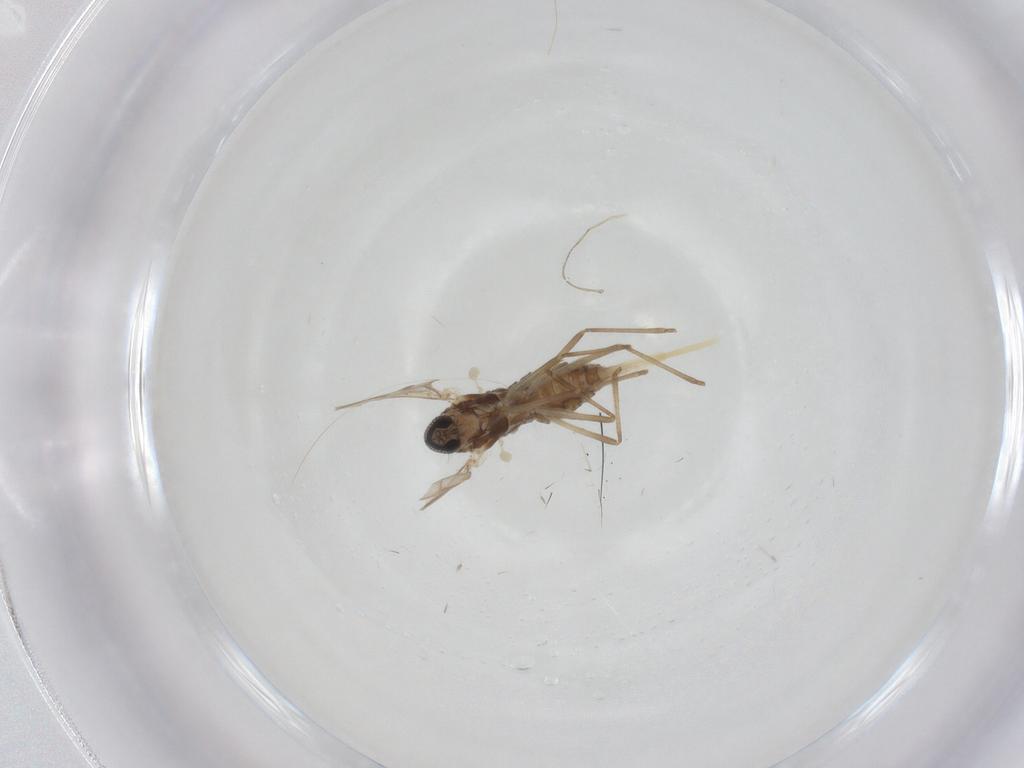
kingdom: Animalia
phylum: Arthropoda
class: Insecta
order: Diptera
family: Cecidomyiidae
